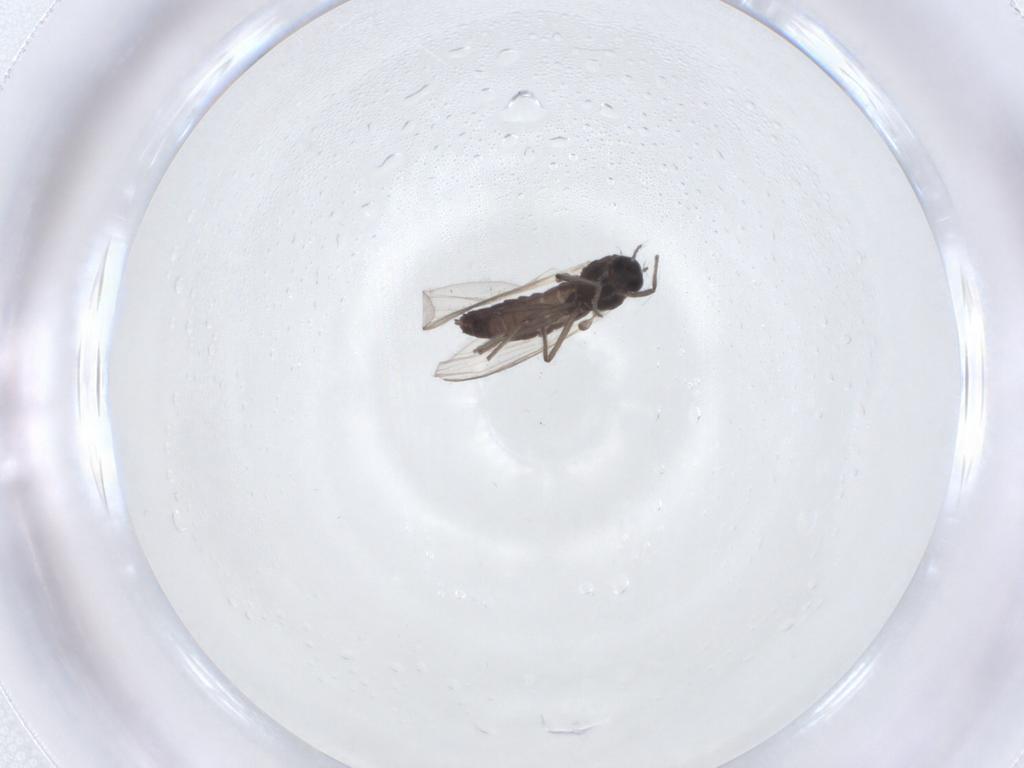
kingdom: Animalia
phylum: Arthropoda
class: Insecta
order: Diptera
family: Chironomidae
